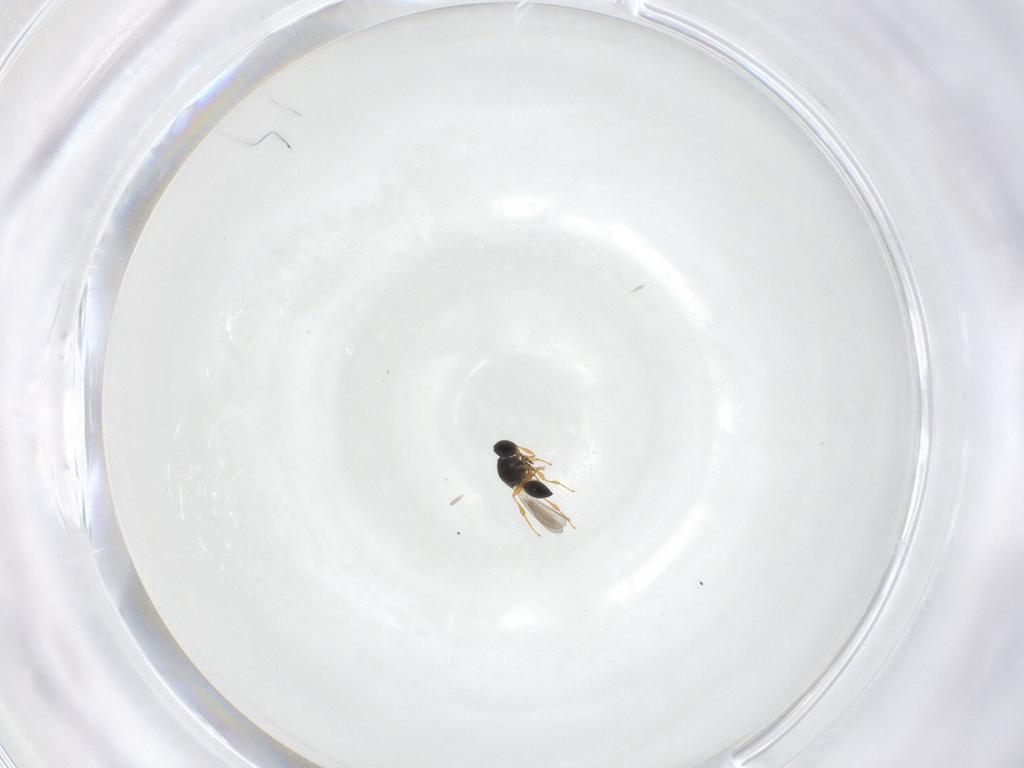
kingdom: Animalia
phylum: Arthropoda
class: Insecta
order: Hymenoptera
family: Platygastridae
